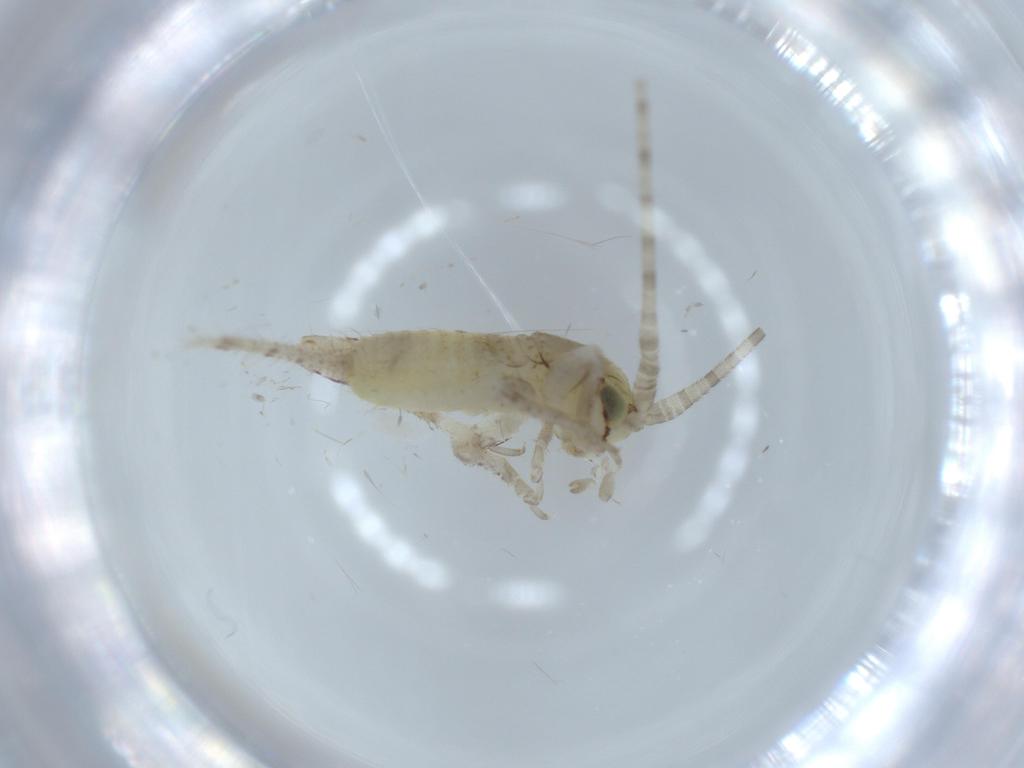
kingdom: Animalia
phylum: Arthropoda
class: Insecta
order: Orthoptera
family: Gryllidae
